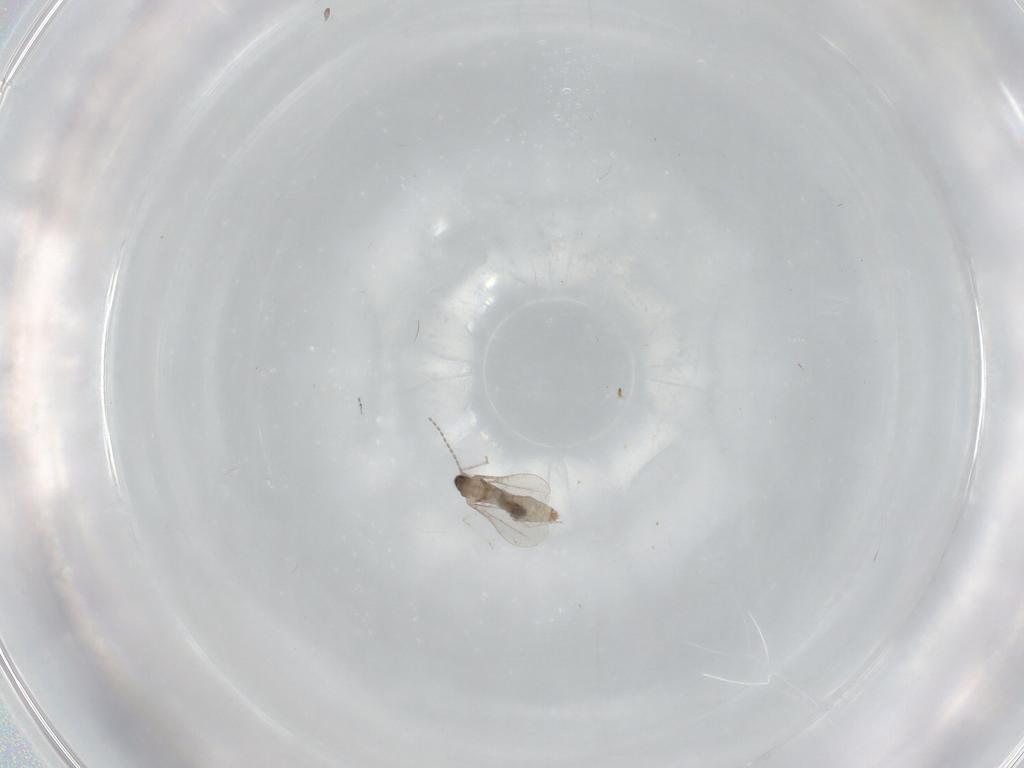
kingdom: Animalia
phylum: Arthropoda
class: Insecta
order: Diptera
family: Cecidomyiidae
